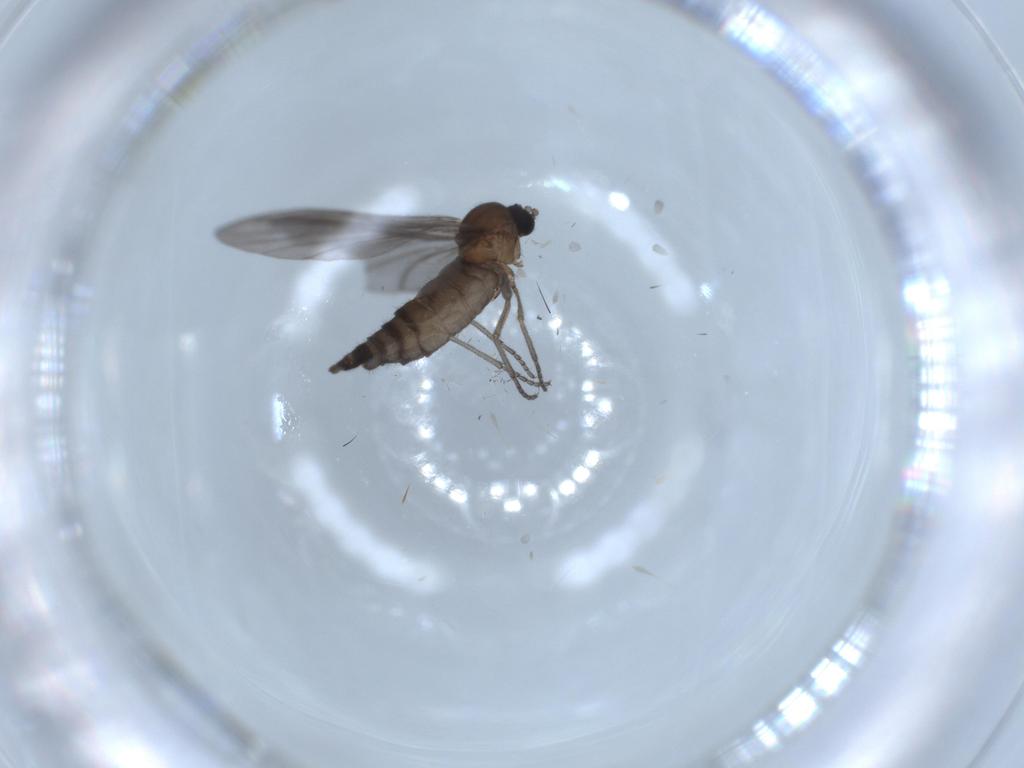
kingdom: Animalia
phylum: Arthropoda
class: Insecta
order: Diptera
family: Sciaridae
